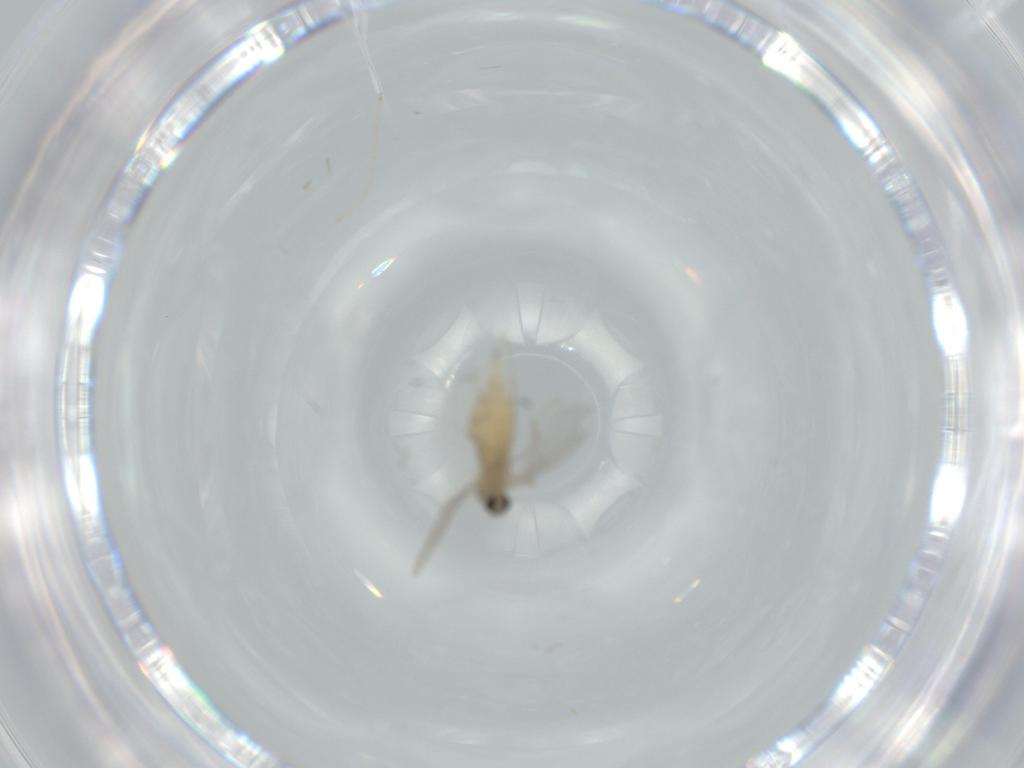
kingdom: Animalia
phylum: Arthropoda
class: Insecta
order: Diptera
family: Cecidomyiidae
